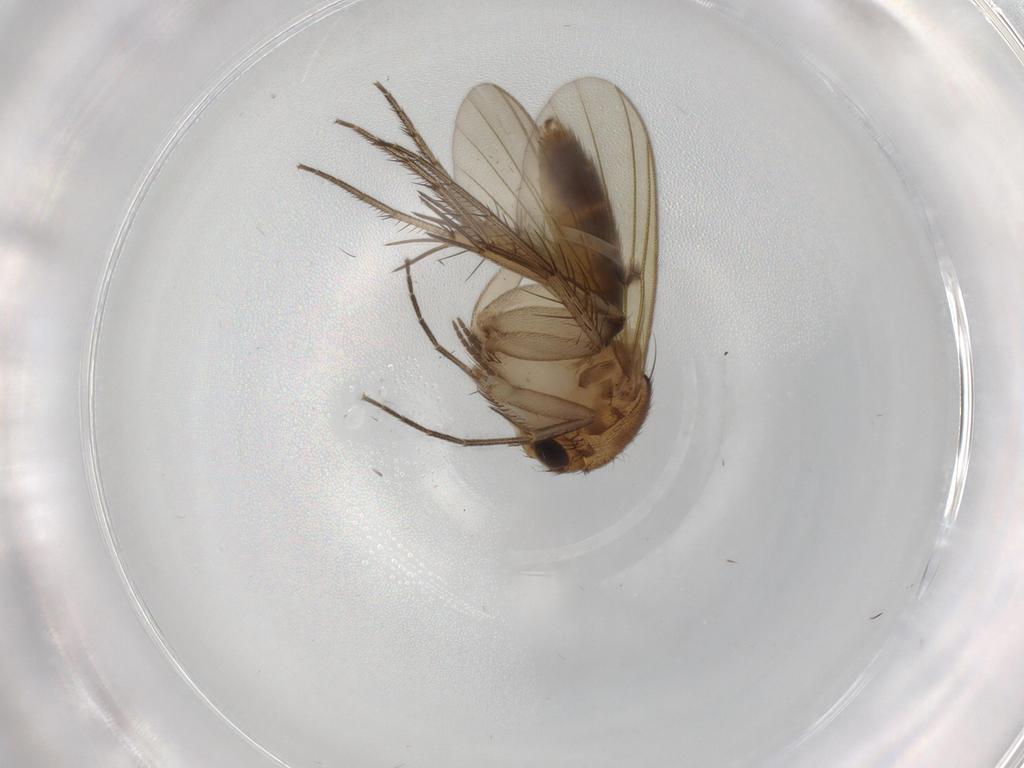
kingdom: Animalia
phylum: Arthropoda
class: Insecta
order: Diptera
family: Mycetophilidae
